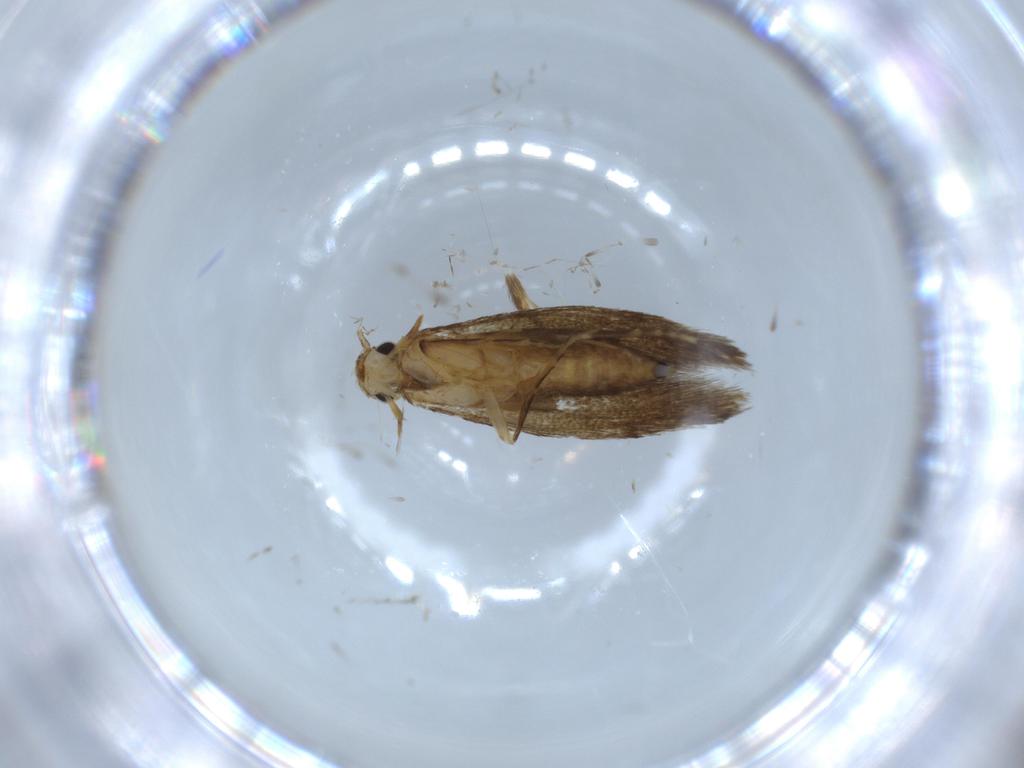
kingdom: Animalia
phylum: Arthropoda
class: Insecta
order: Lepidoptera
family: Tineidae
